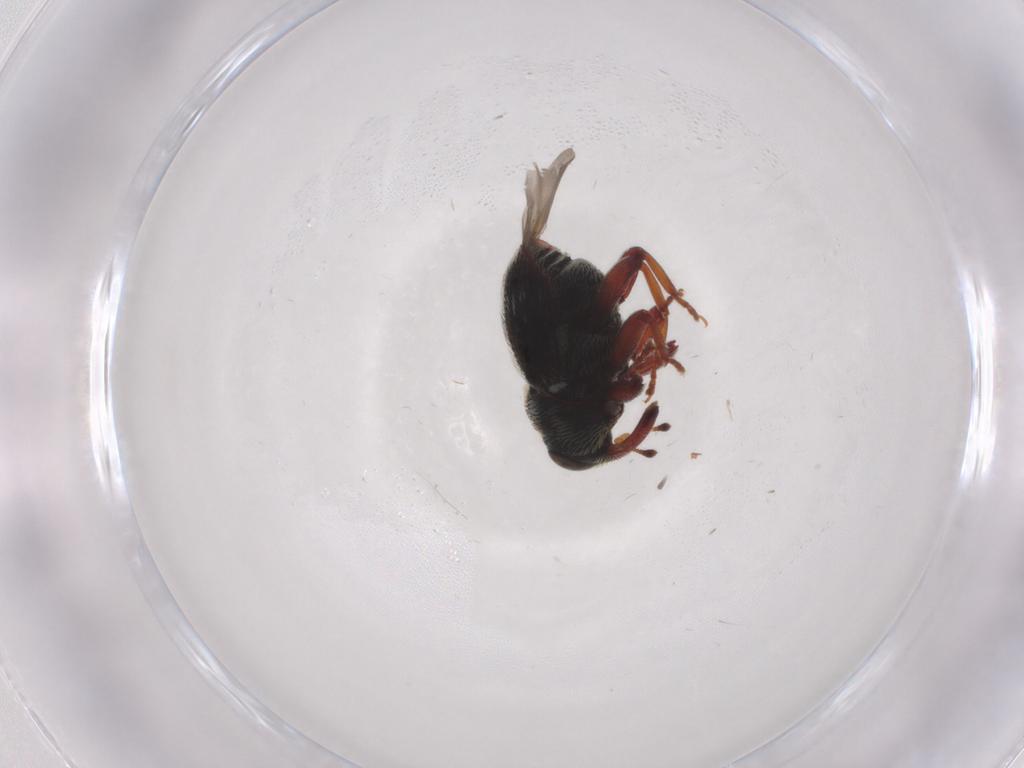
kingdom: Animalia
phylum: Arthropoda
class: Insecta
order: Coleoptera
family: Curculionidae
